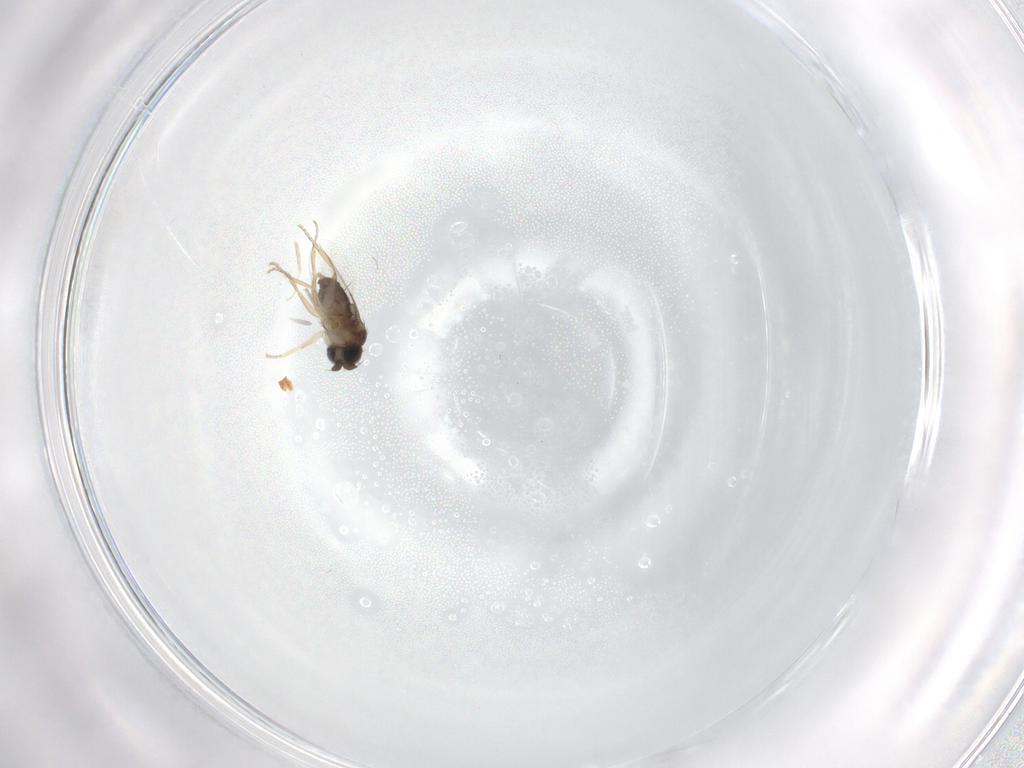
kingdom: Animalia
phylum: Arthropoda
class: Insecta
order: Diptera
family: Phoridae
